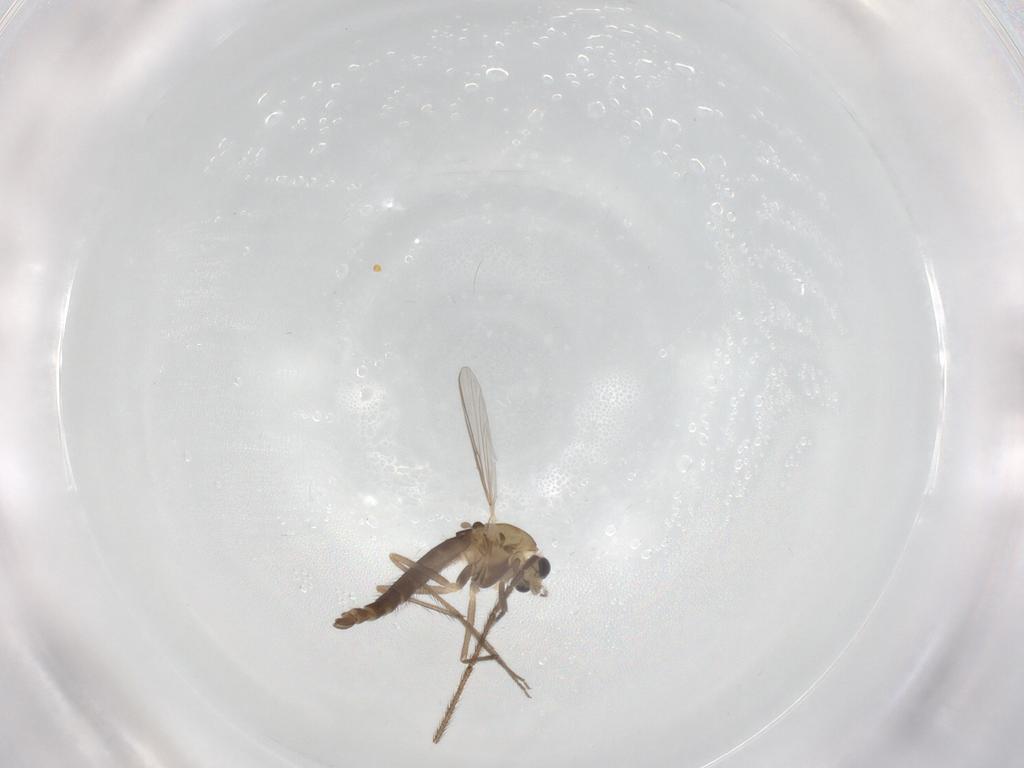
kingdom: Animalia
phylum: Arthropoda
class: Insecta
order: Diptera
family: Chironomidae
